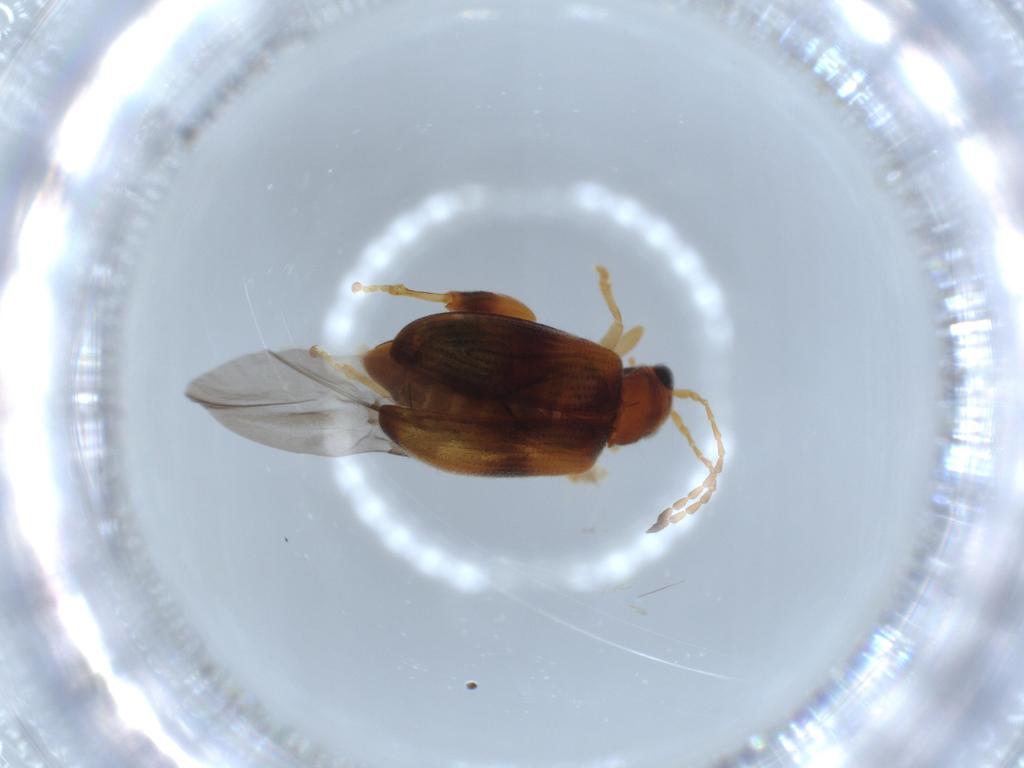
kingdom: Animalia
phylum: Arthropoda
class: Insecta
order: Coleoptera
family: Chrysomelidae
